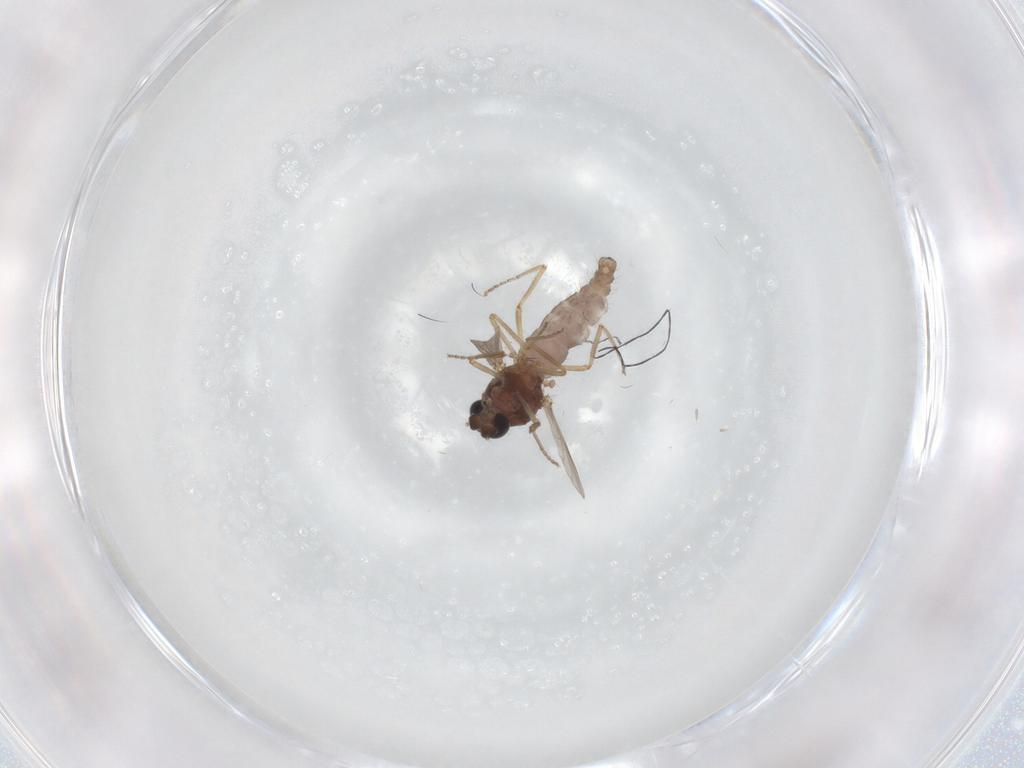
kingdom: Animalia
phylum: Arthropoda
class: Insecta
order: Diptera
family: Ceratopogonidae
